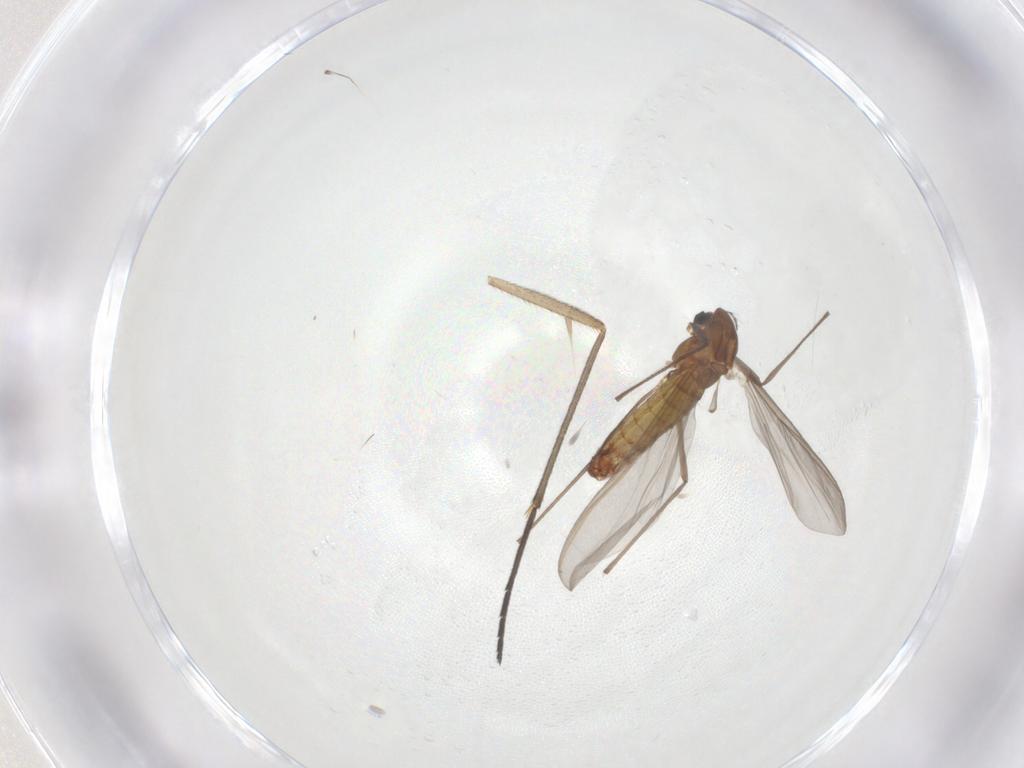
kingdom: Animalia
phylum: Arthropoda
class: Insecta
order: Diptera
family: Sciaridae
